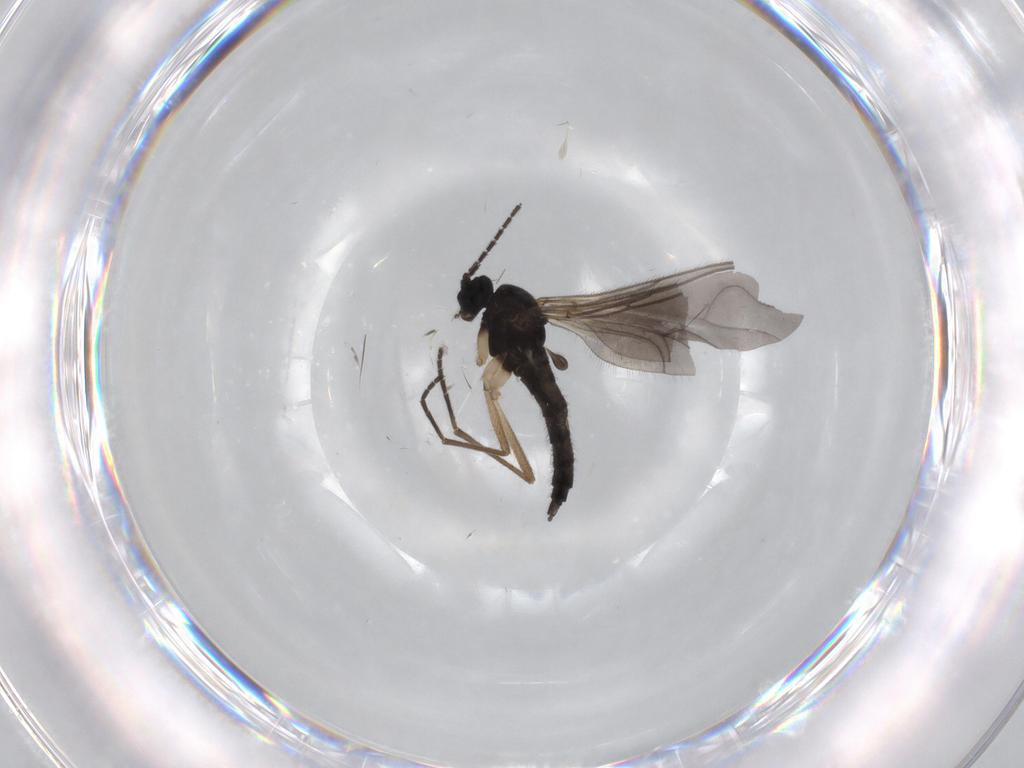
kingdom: Animalia
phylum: Arthropoda
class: Insecta
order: Diptera
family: Sciaridae
